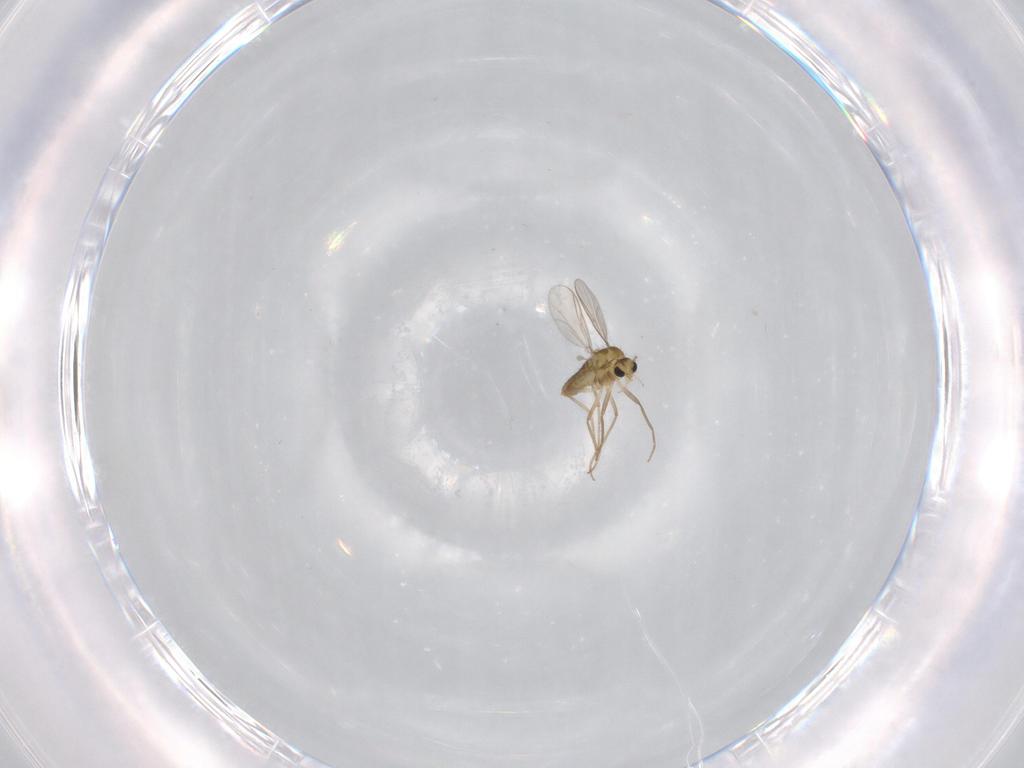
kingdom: Animalia
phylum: Arthropoda
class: Insecta
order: Diptera
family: Chironomidae
